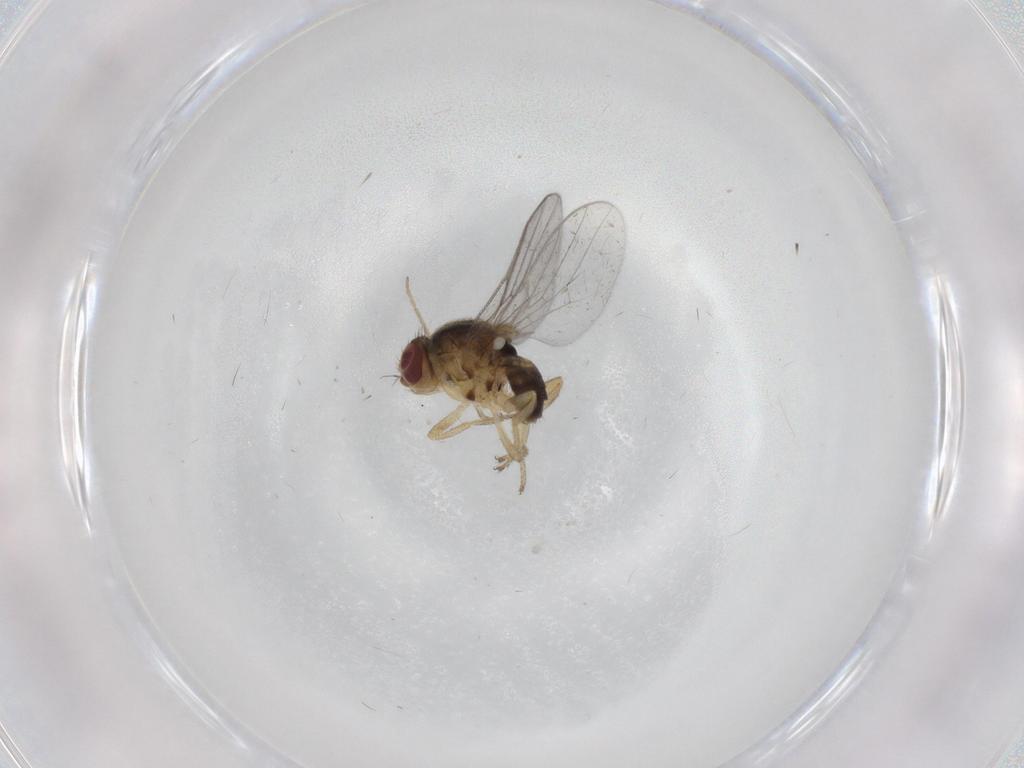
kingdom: Animalia
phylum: Arthropoda
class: Insecta
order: Diptera
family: Chloropidae
